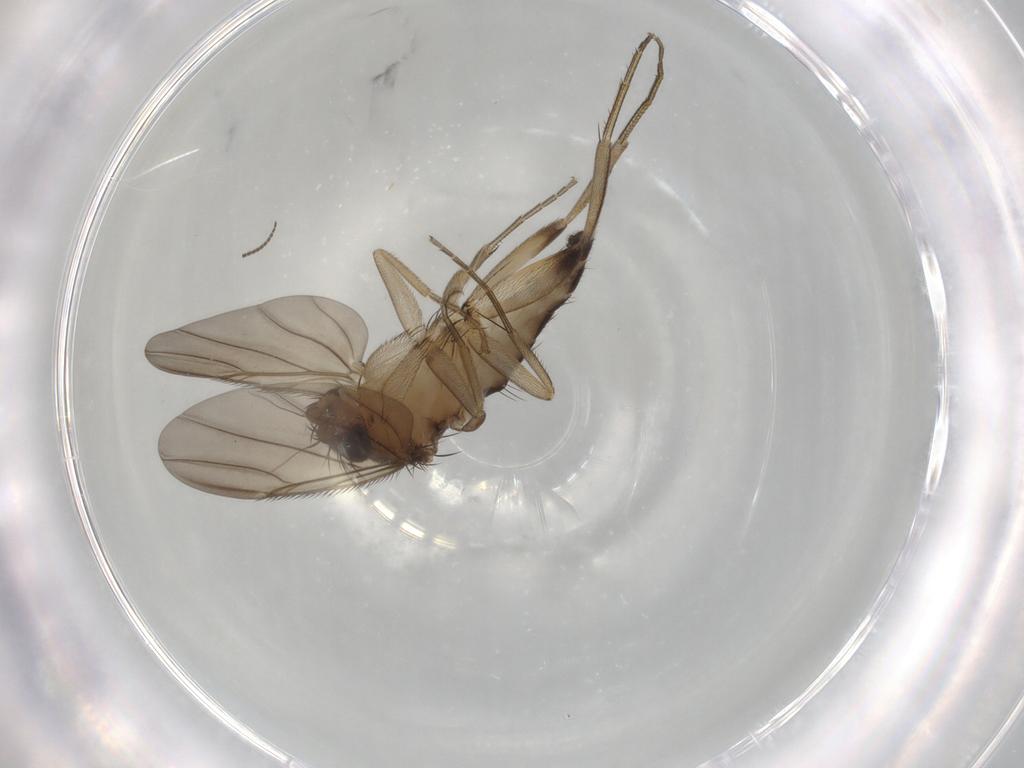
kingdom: Animalia
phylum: Arthropoda
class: Insecta
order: Diptera
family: Phoridae
